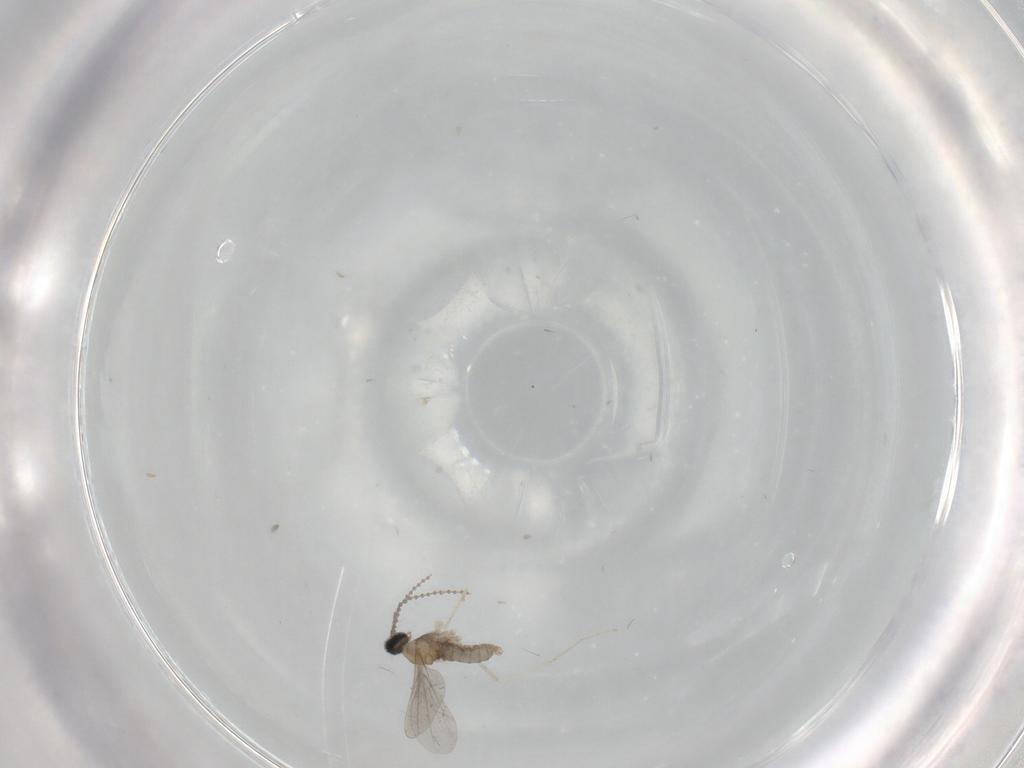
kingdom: Animalia
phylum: Arthropoda
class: Insecta
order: Diptera
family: Cecidomyiidae
